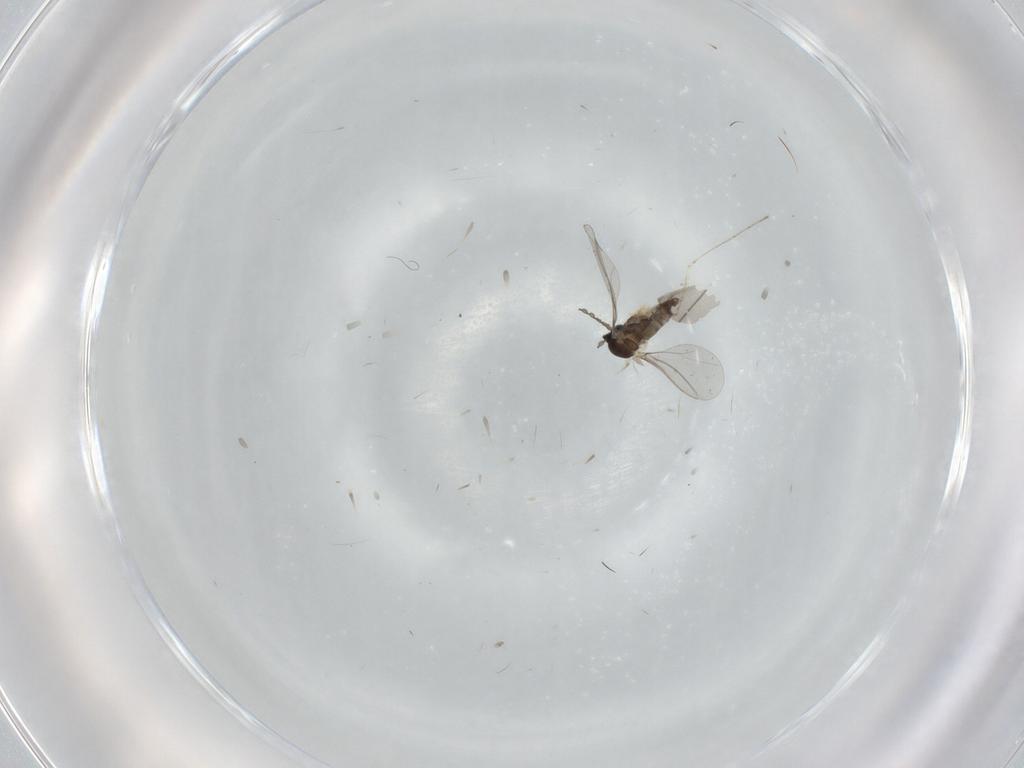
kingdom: Animalia
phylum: Arthropoda
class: Insecta
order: Diptera
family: Cecidomyiidae
